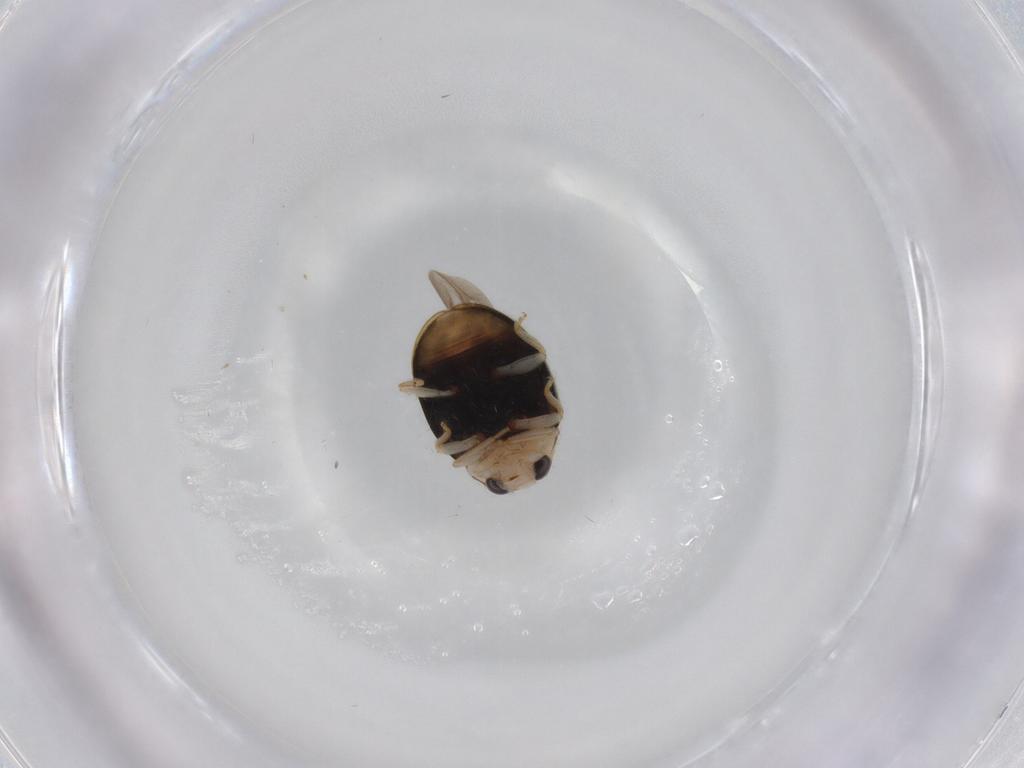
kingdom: Animalia
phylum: Arthropoda
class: Insecta
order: Coleoptera
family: Coccinellidae
